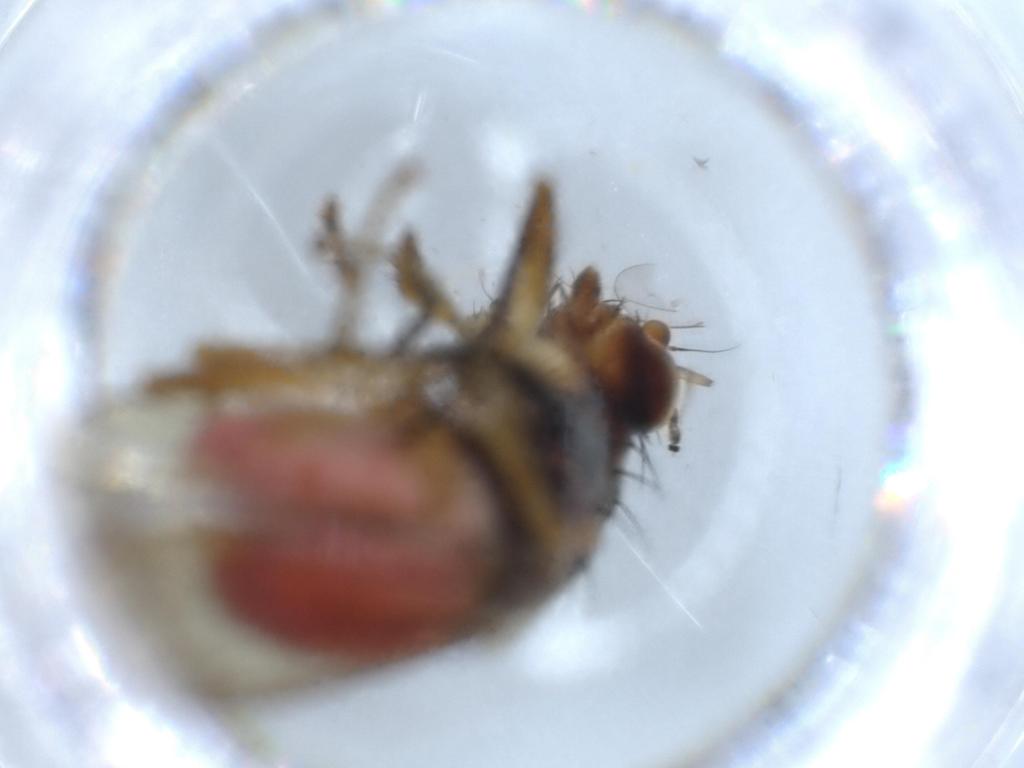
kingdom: Animalia
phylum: Arthropoda
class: Insecta
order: Diptera
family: Heleomyzidae
